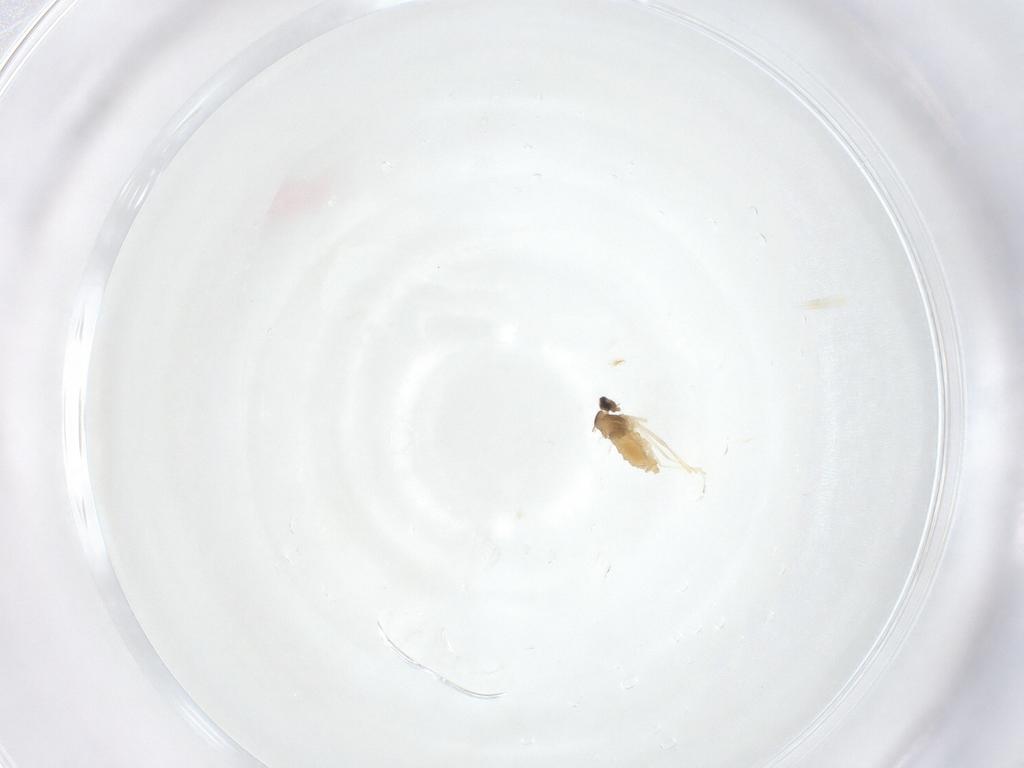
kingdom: Animalia
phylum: Arthropoda
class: Insecta
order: Diptera
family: Cecidomyiidae
